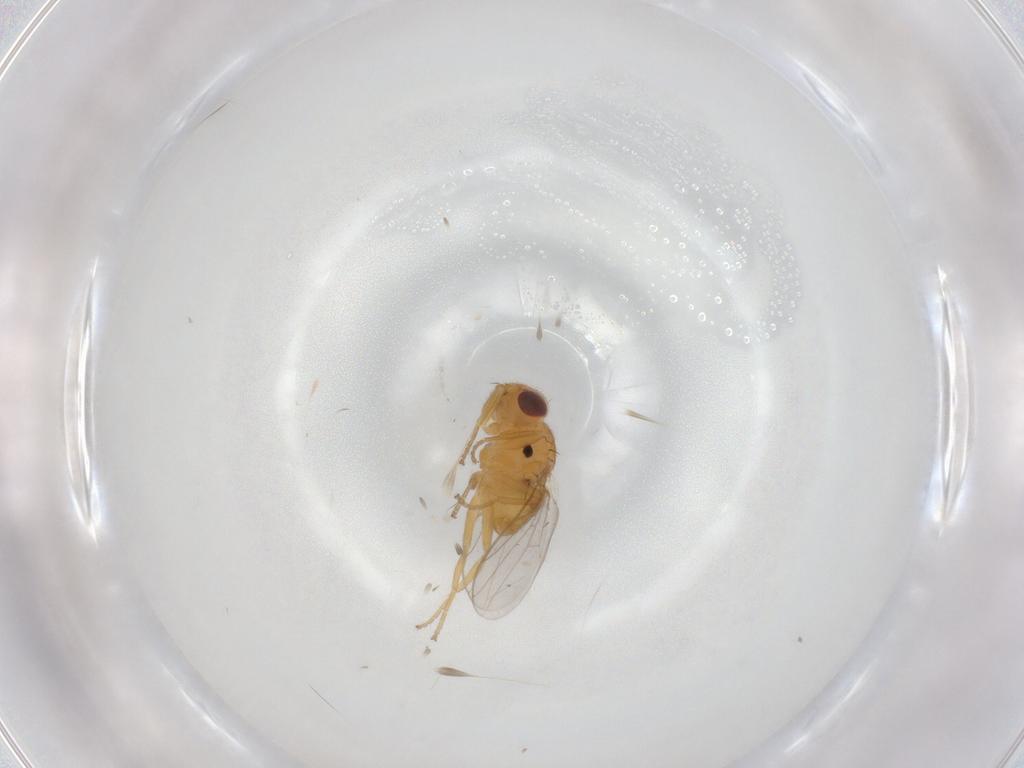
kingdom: Animalia
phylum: Arthropoda
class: Insecta
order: Diptera
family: Chloropidae
